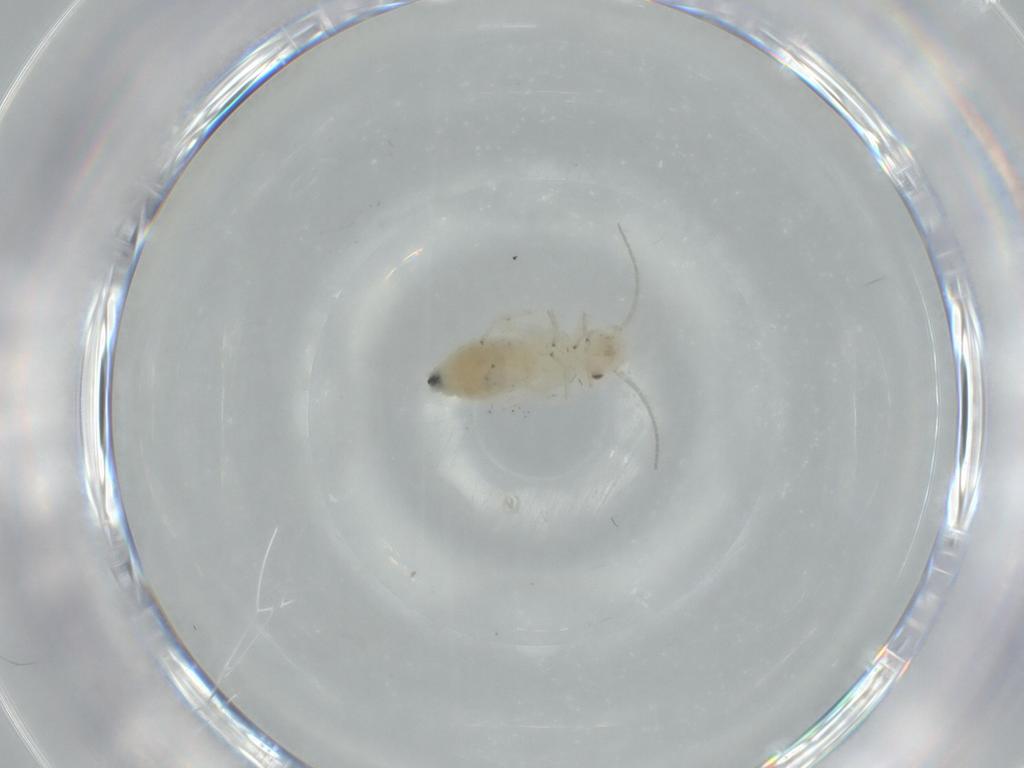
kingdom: Animalia
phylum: Arthropoda
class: Insecta
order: Psocodea
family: Caeciliusidae
